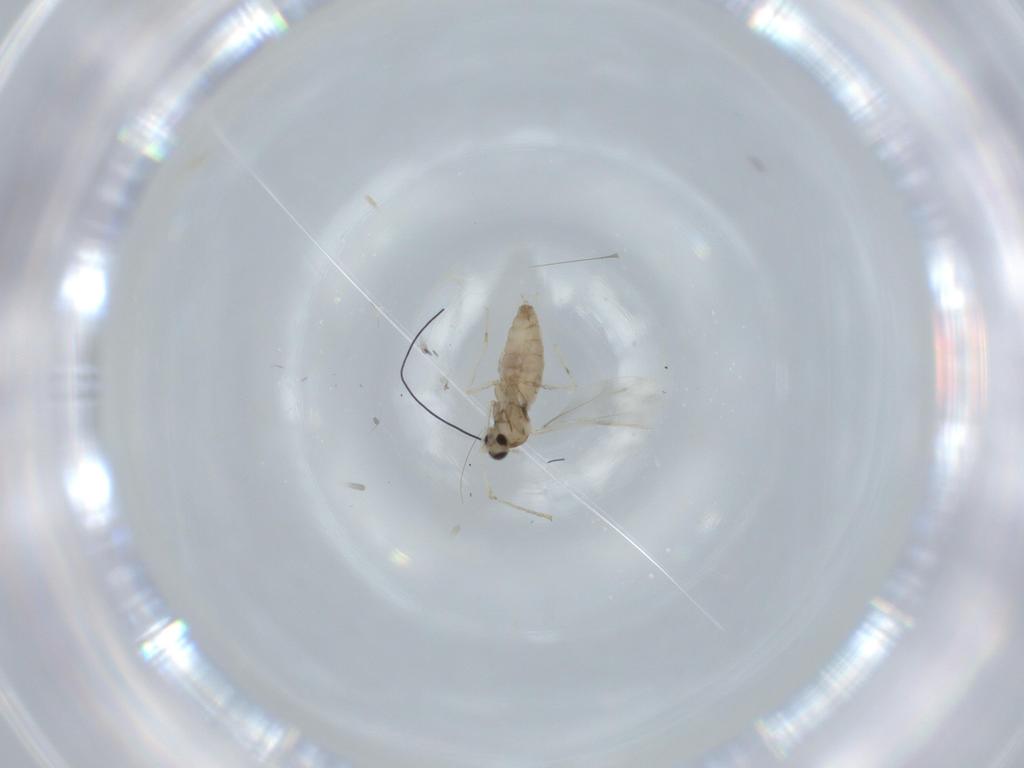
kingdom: Animalia
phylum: Arthropoda
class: Insecta
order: Diptera
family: Cecidomyiidae
